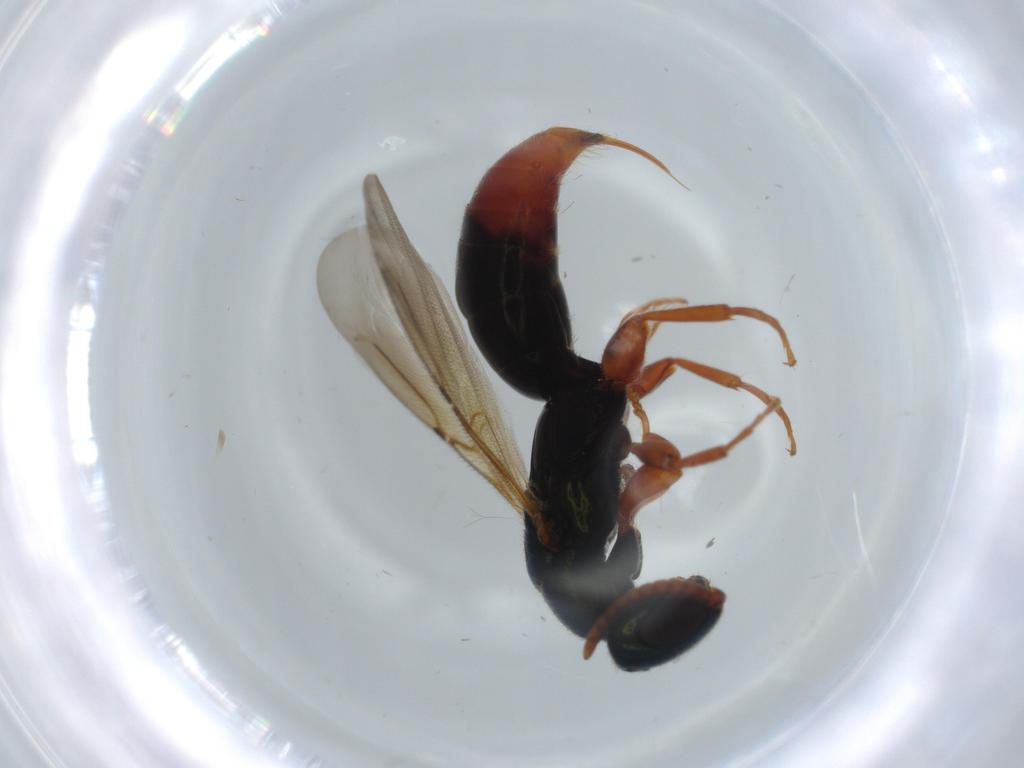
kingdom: Animalia
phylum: Arthropoda
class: Insecta
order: Hymenoptera
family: Bethylidae
